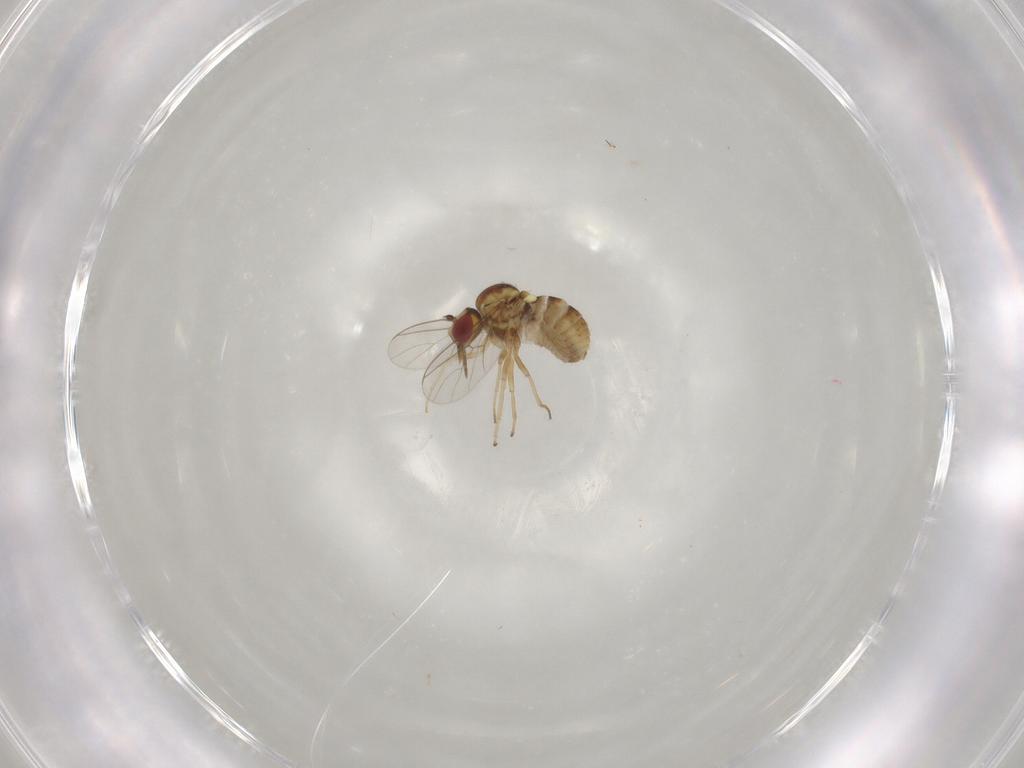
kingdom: Animalia
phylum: Arthropoda
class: Insecta
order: Diptera
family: Mythicomyiidae
